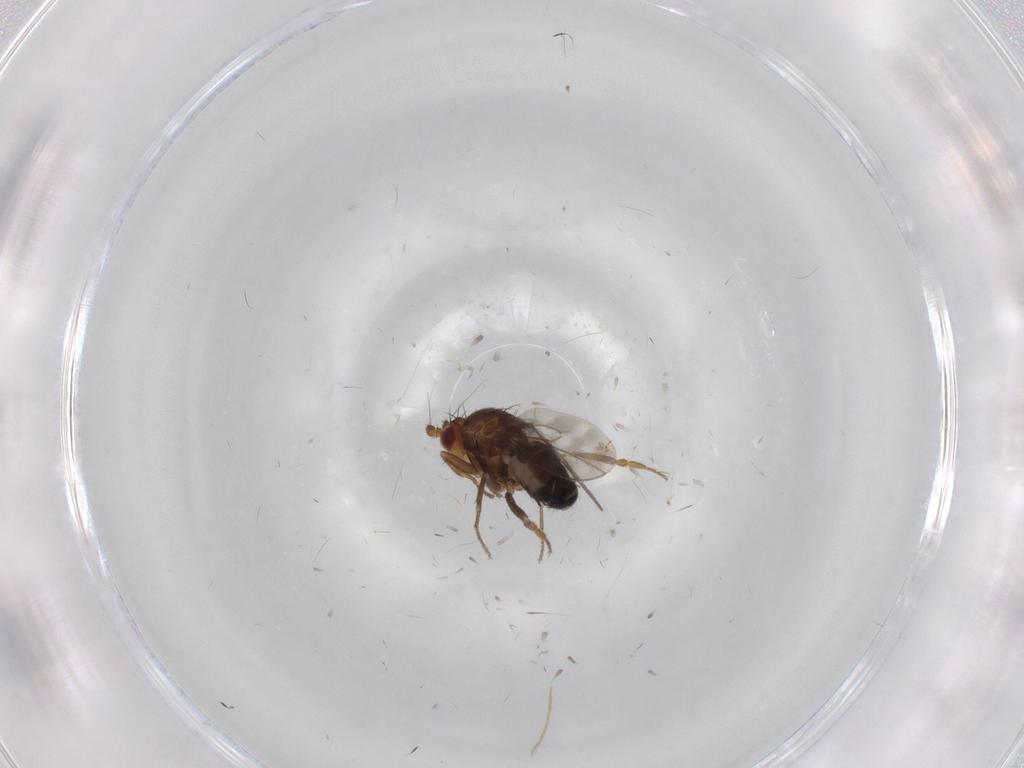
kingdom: Animalia
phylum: Arthropoda
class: Insecta
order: Diptera
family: Sphaeroceridae
